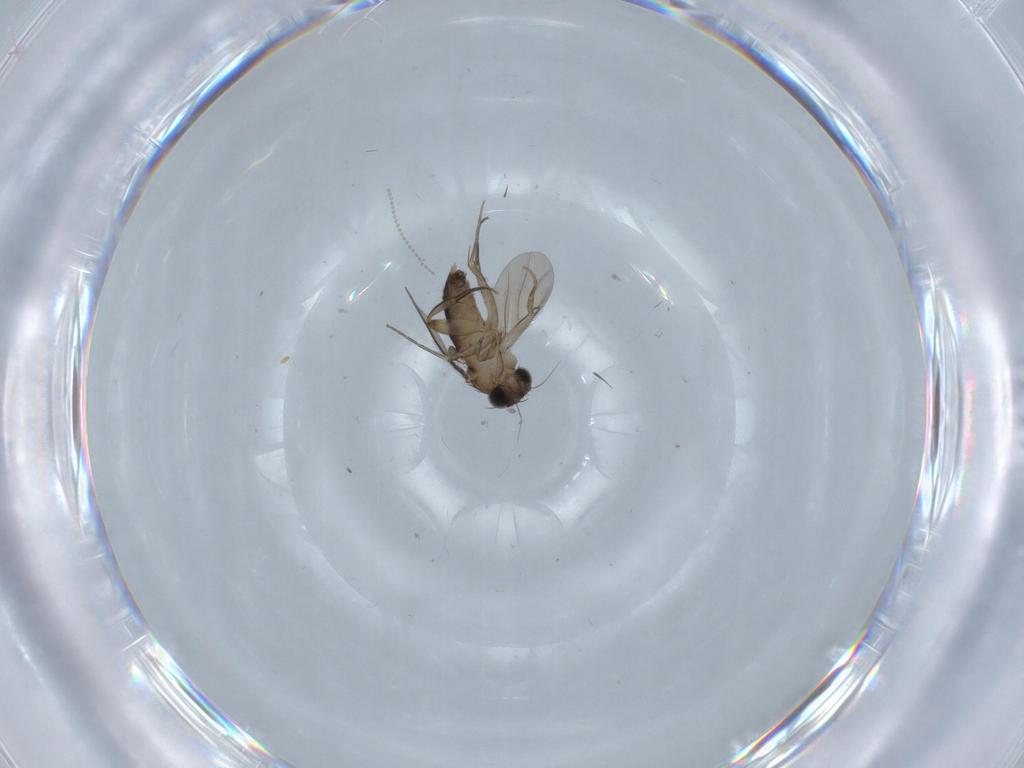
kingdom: Animalia
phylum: Arthropoda
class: Insecta
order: Diptera
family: Phoridae
